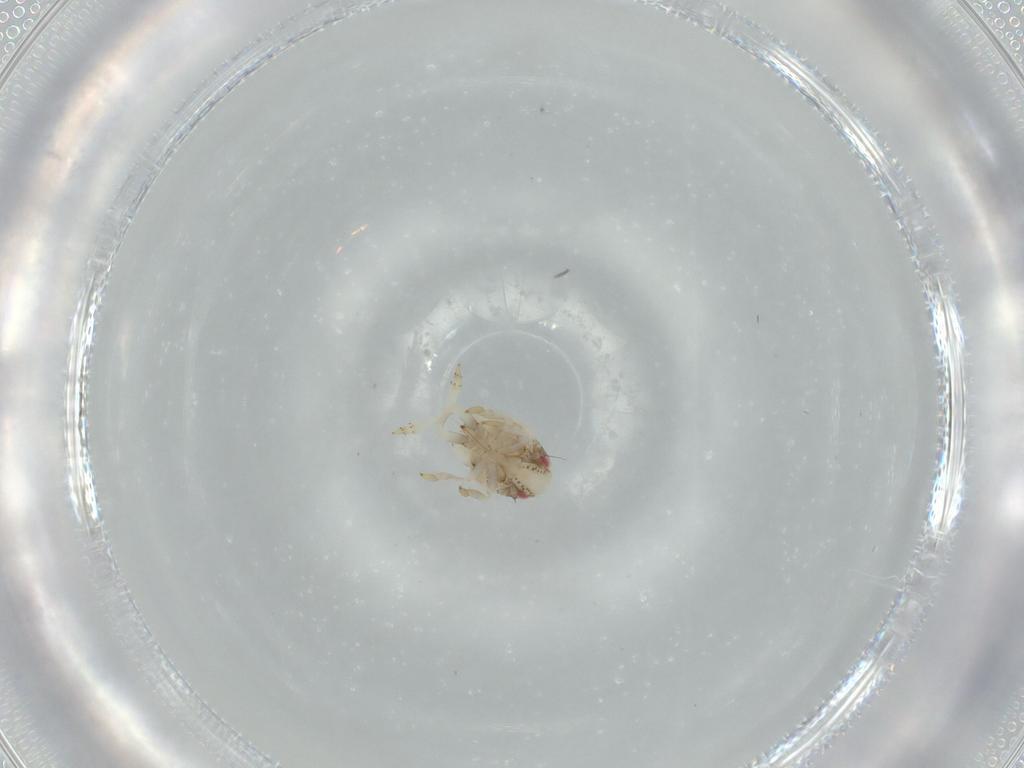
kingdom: Animalia
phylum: Arthropoda
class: Insecta
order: Hemiptera
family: Acanaloniidae
